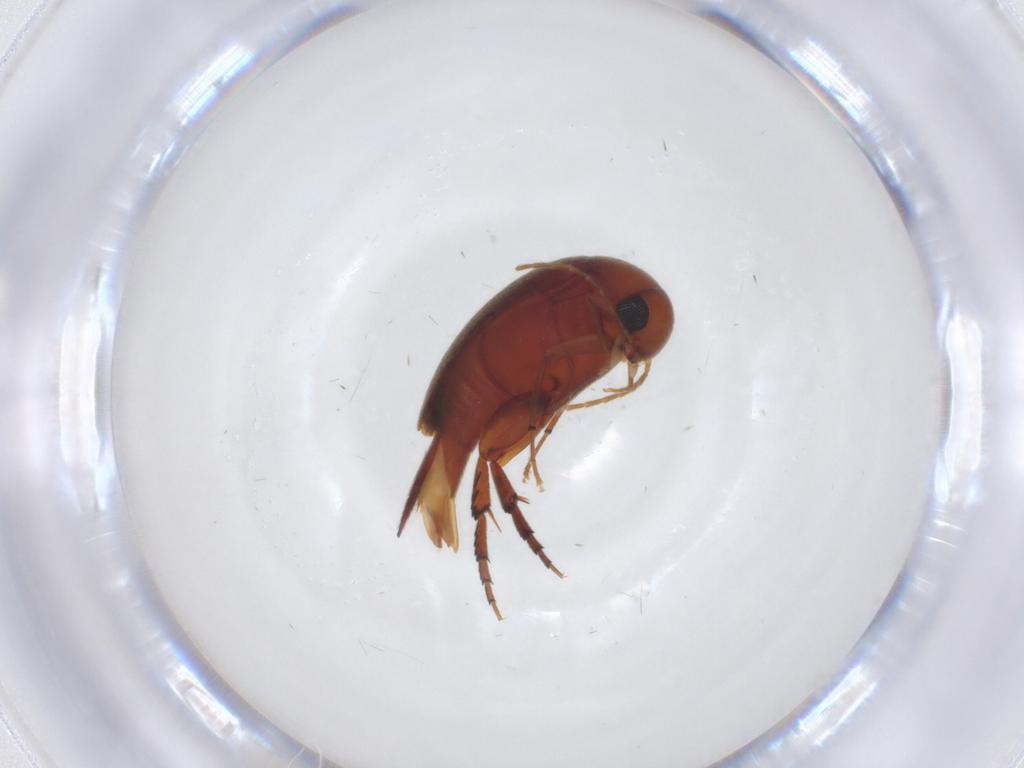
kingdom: Animalia
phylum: Arthropoda
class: Insecta
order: Coleoptera
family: Mordellidae
